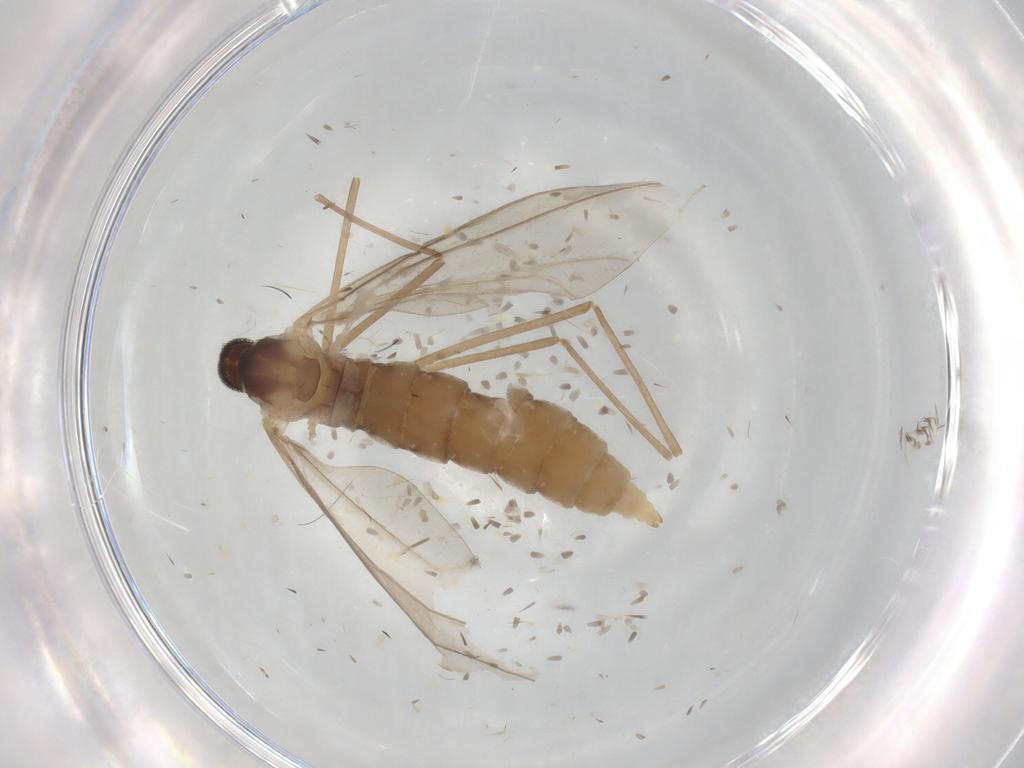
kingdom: Animalia
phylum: Arthropoda
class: Insecta
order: Diptera
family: Cecidomyiidae
